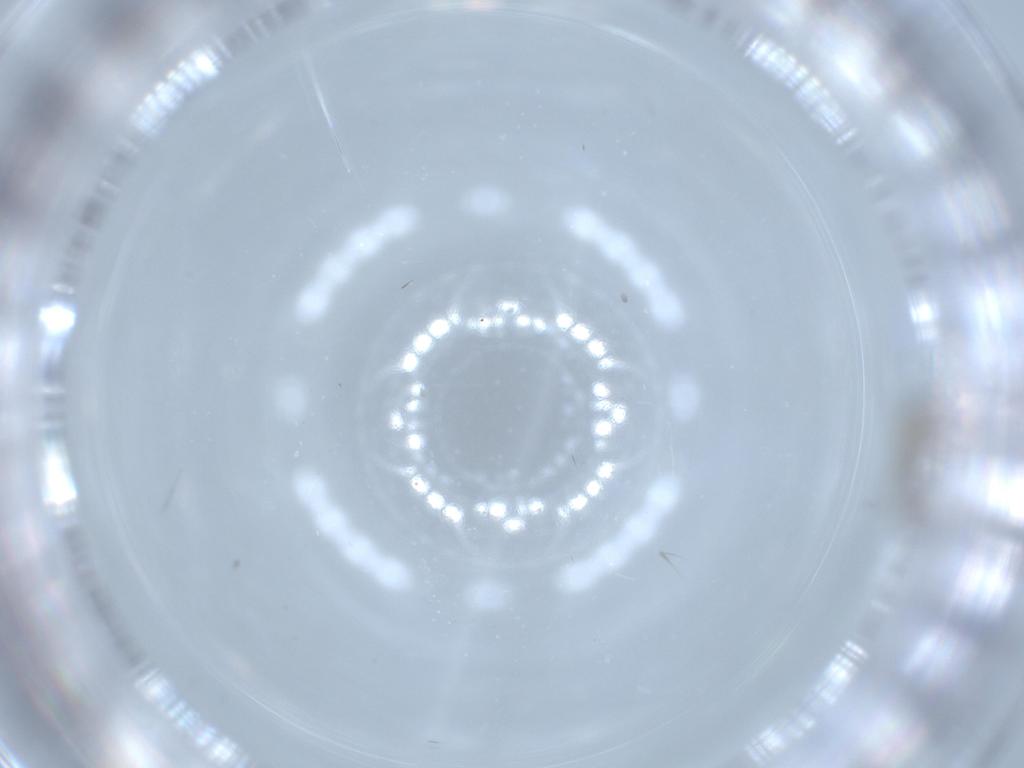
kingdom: Animalia
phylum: Arthropoda
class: Insecta
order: Diptera
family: Cecidomyiidae
